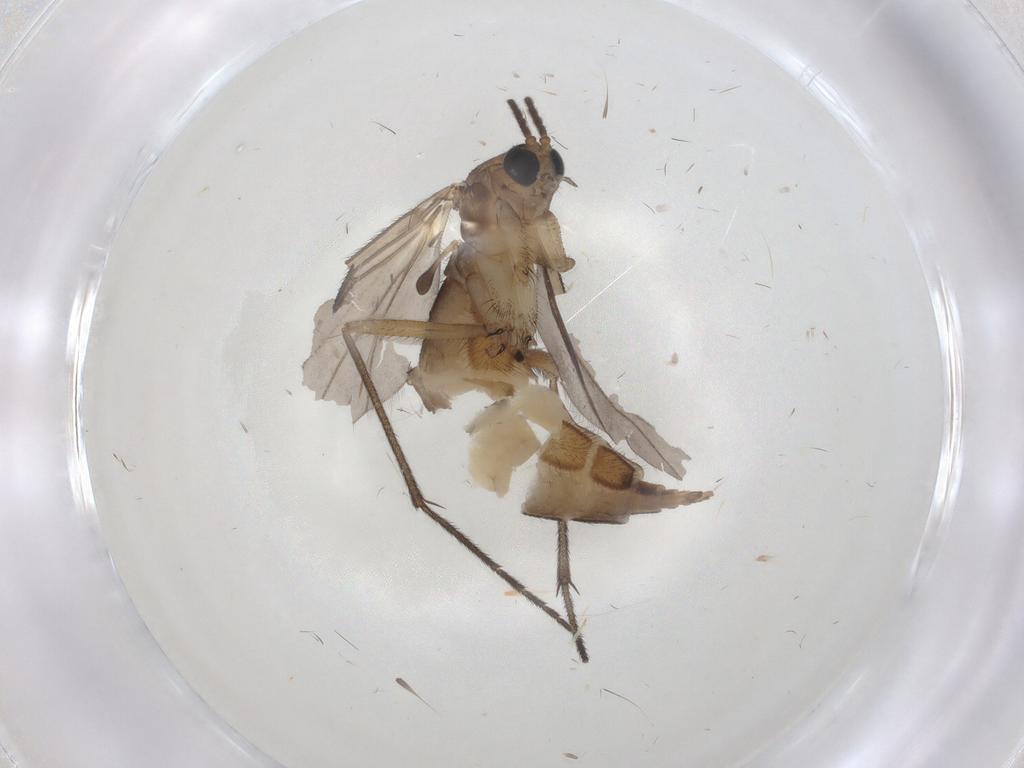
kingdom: Animalia
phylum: Arthropoda
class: Insecta
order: Diptera
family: Sciaridae
